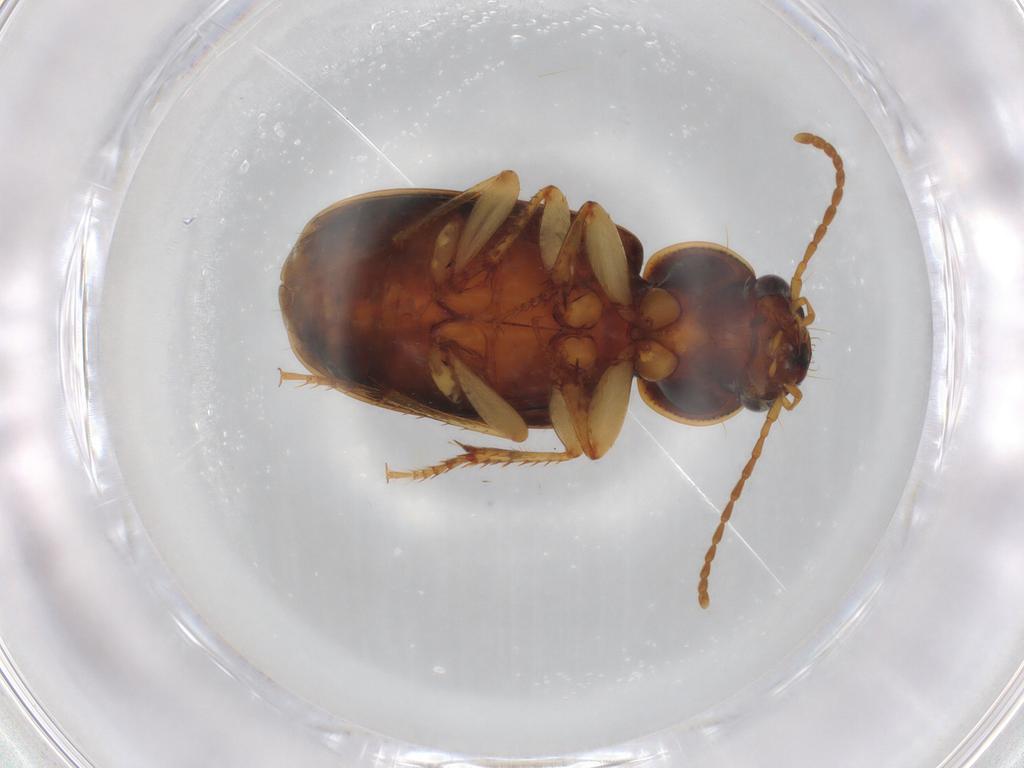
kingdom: Animalia
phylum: Arthropoda
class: Insecta
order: Coleoptera
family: Carabidae
